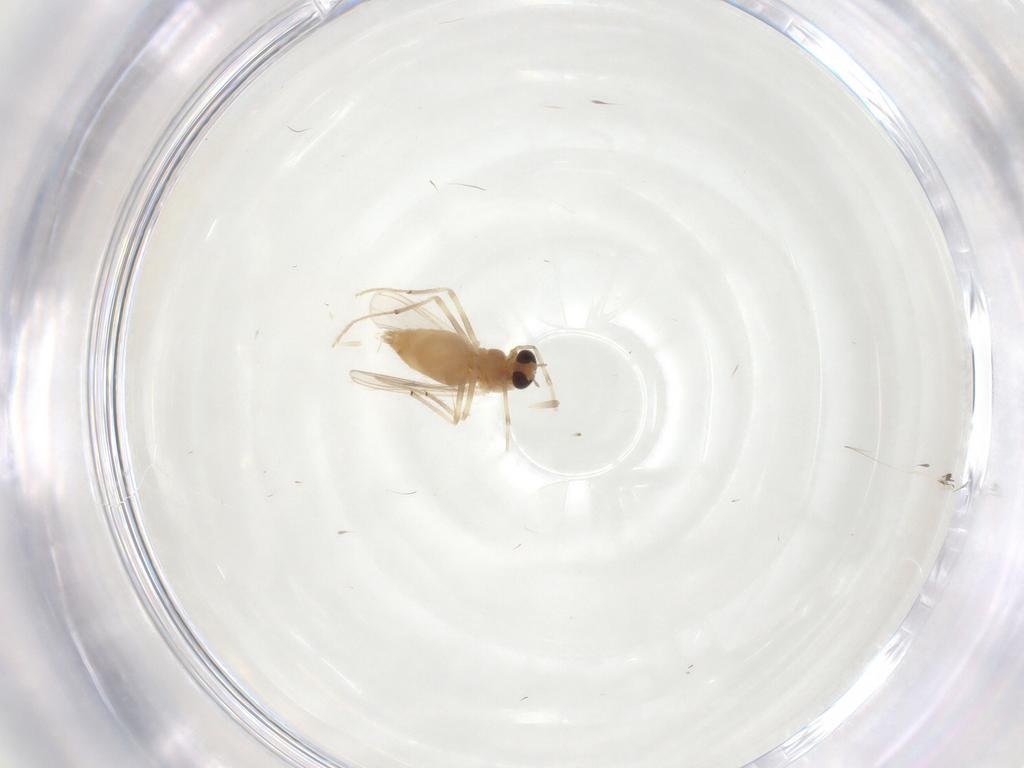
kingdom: Animalia
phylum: Arthropoda
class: Insecta
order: Diptera
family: Chironomidae
